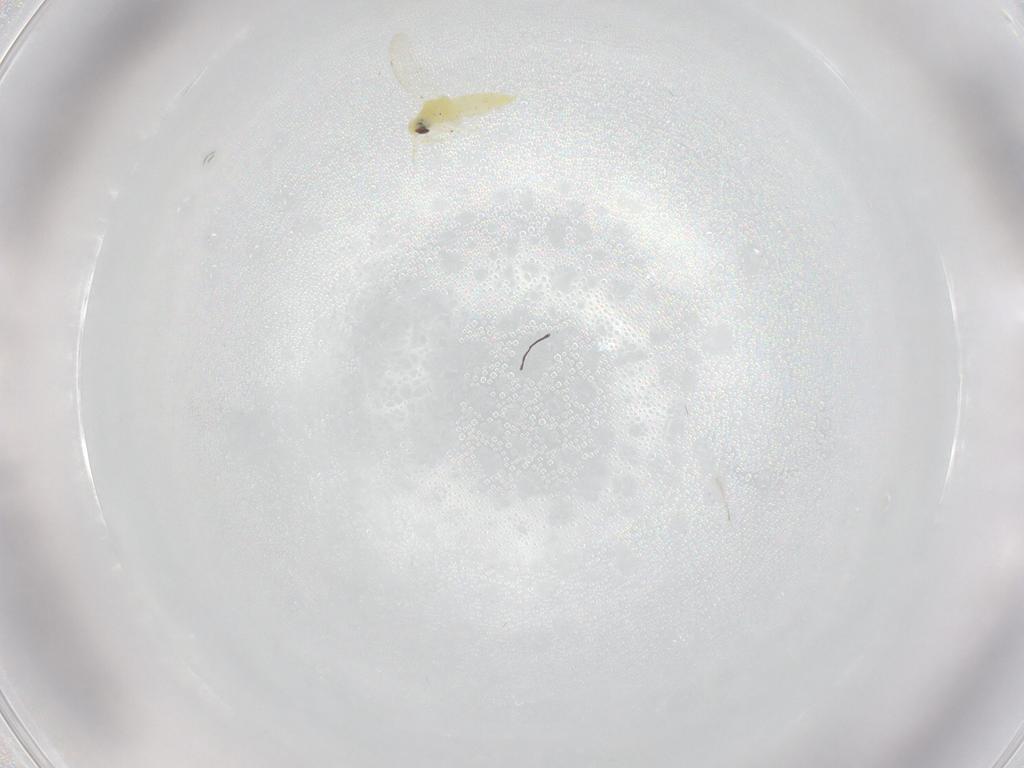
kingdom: Animalia
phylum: Arthropoda
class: Insecta
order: Hemiptera
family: Aleyrodidae
